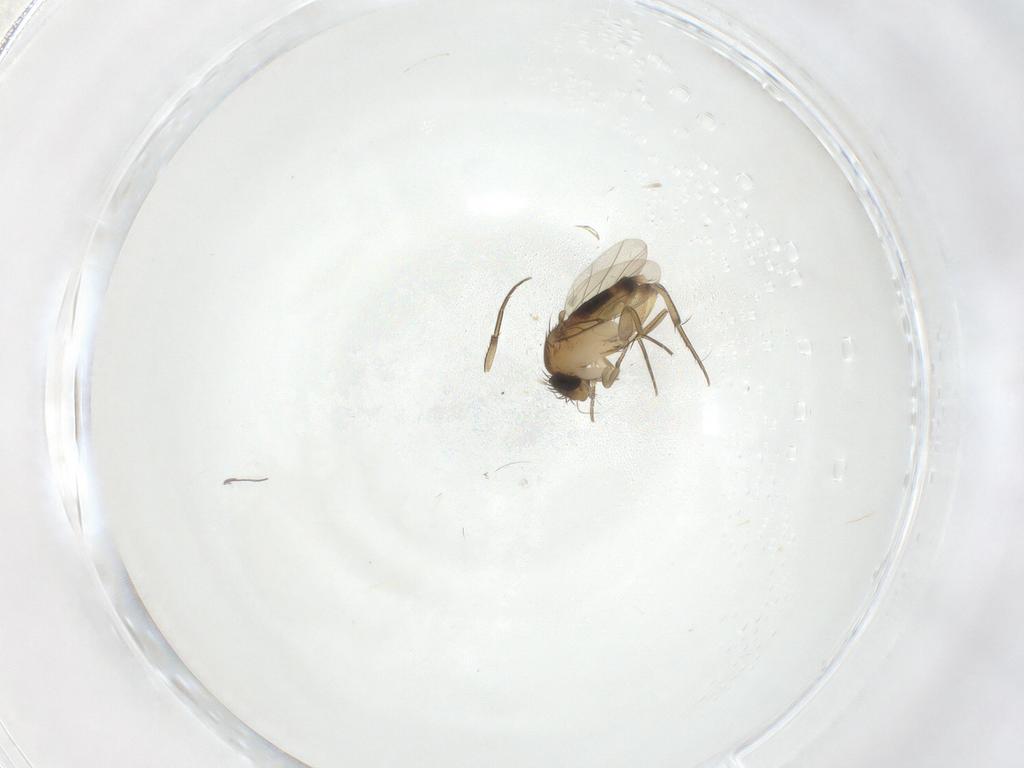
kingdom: Animalia
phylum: Arthropoda
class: Insecta
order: Diptera
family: Phoridae
